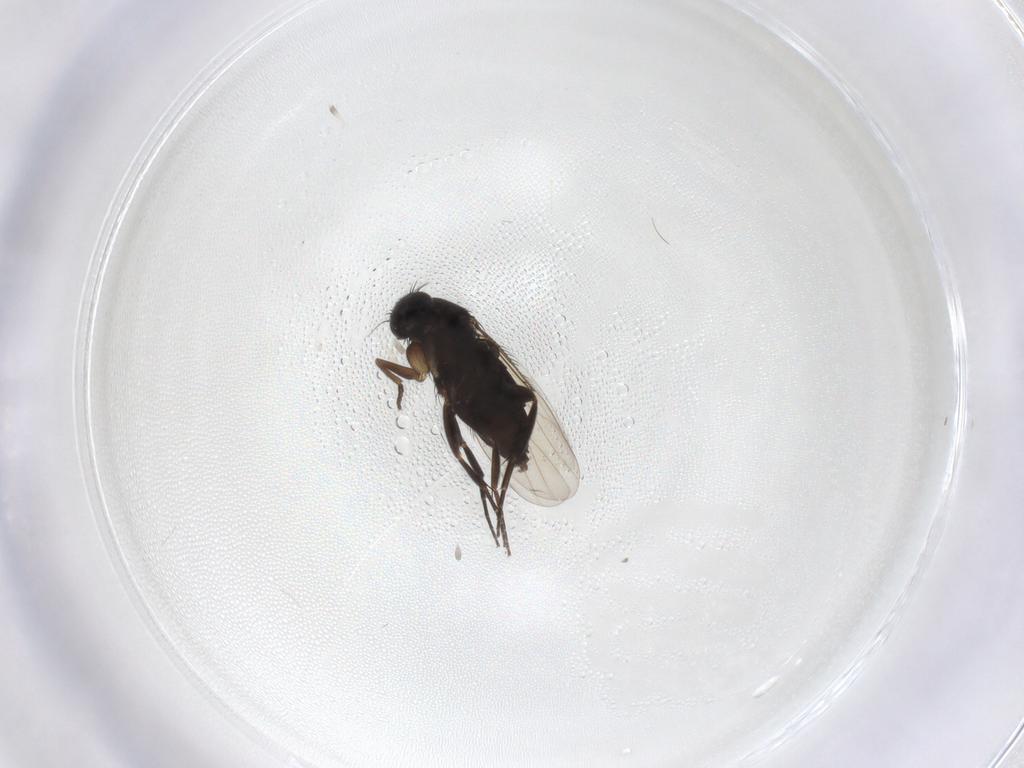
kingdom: Animalia
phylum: Arthropoda
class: Insecta
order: Diptera
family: Phoridae
